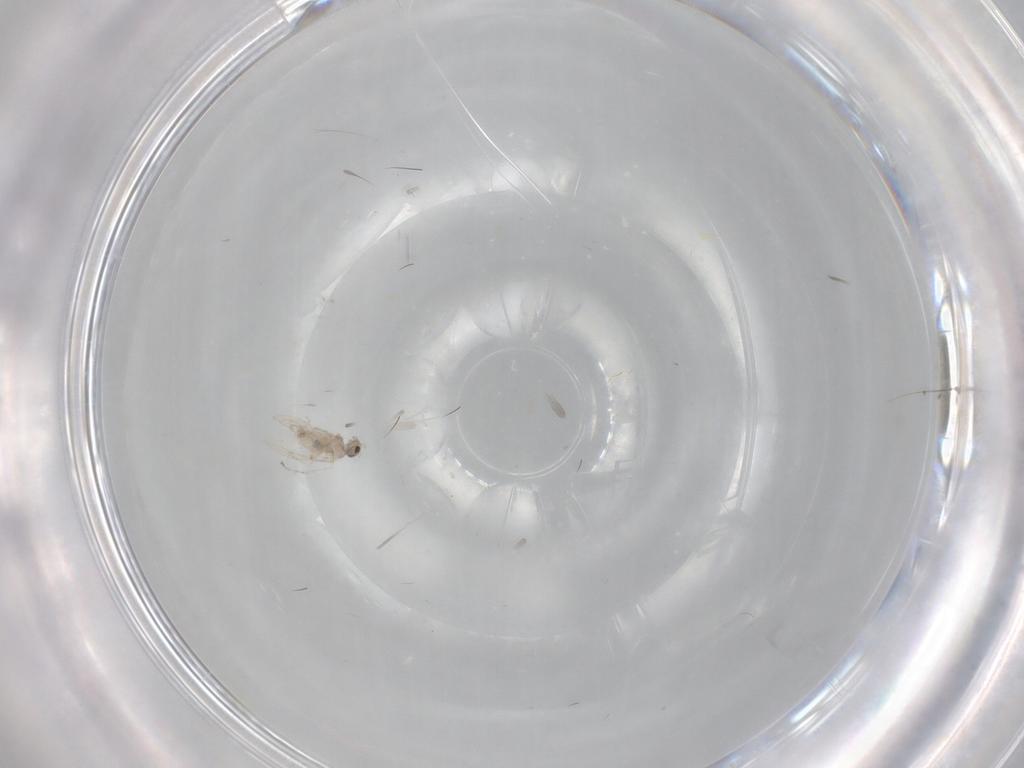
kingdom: Animalia
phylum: Arthropoda
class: Insecta
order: Diptera
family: Cecidomyiidae
